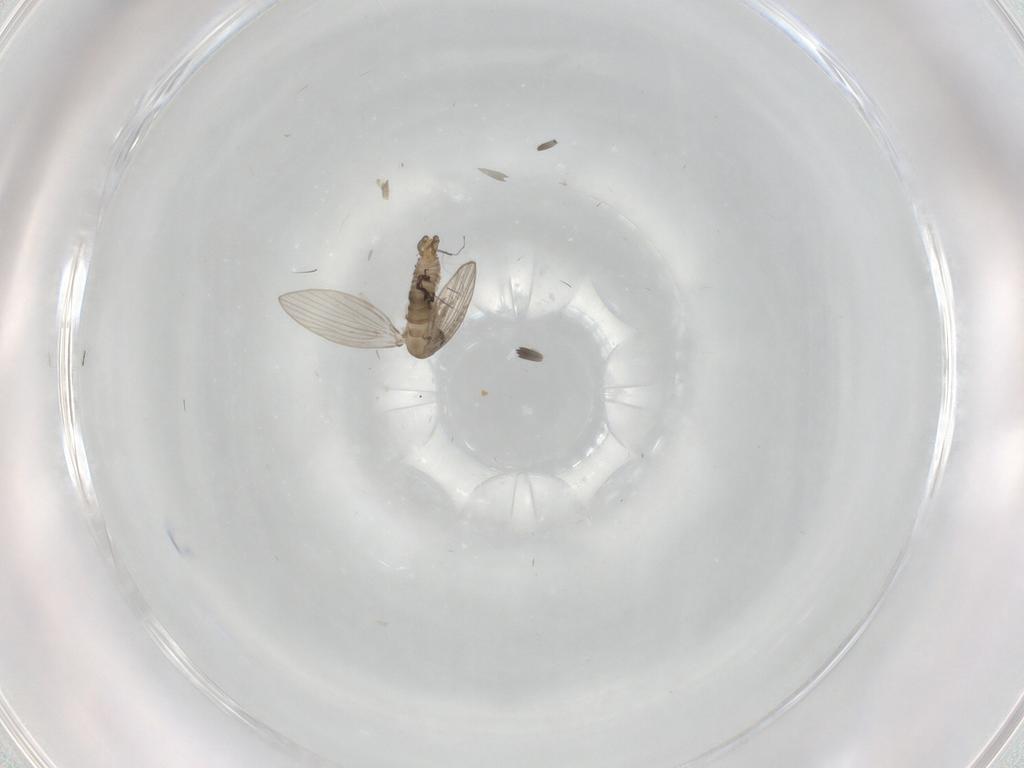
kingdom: Animalia
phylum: Arthropoda
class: Insecta
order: Diptera
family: Psychodidae
